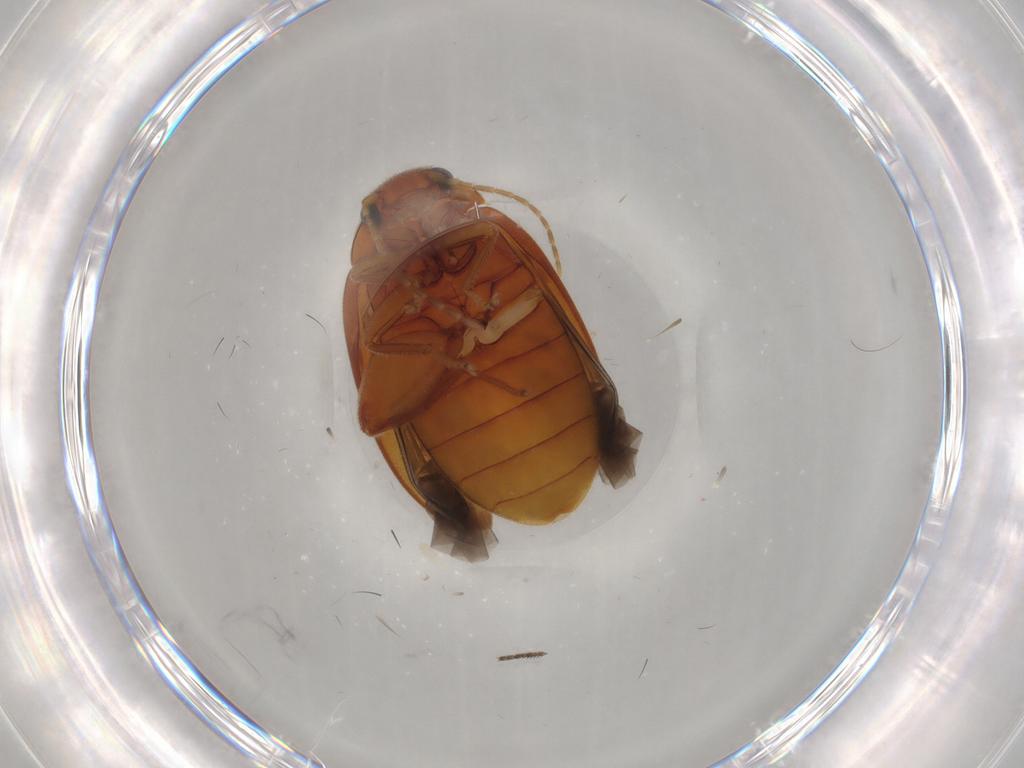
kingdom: Animalia
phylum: Arthropoda
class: Insecta
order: Coleoptera
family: Scirtidae
